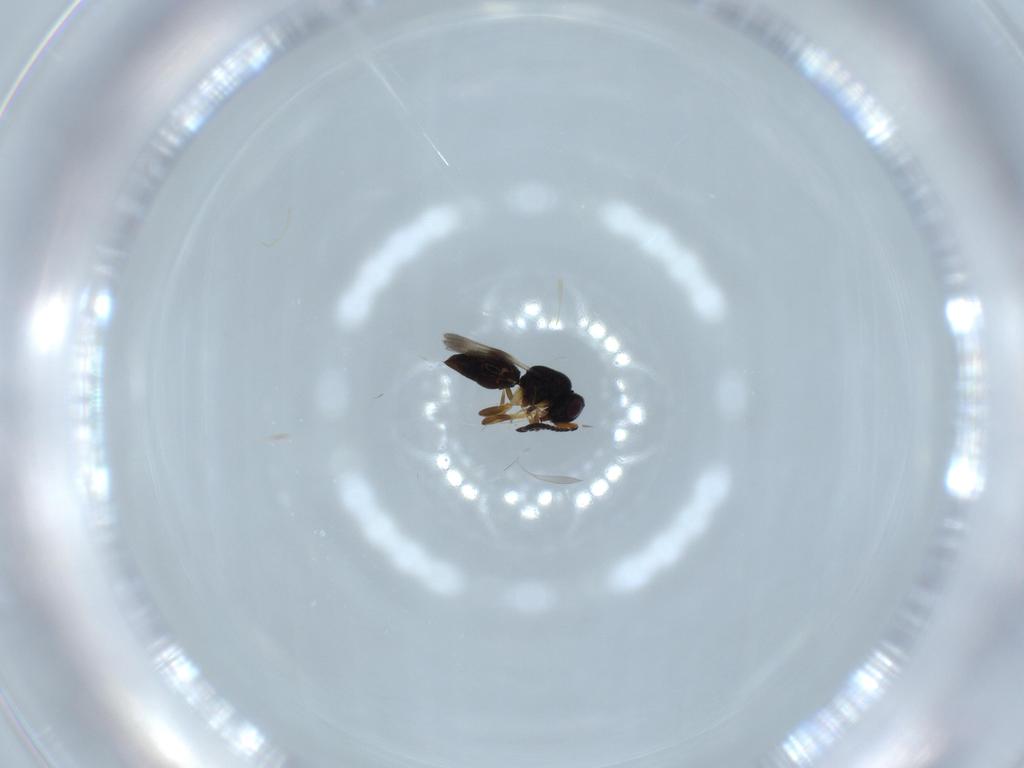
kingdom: Animalia
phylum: Arthropoda
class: Insecta
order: Hymenoptera
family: Ceraphronidae
